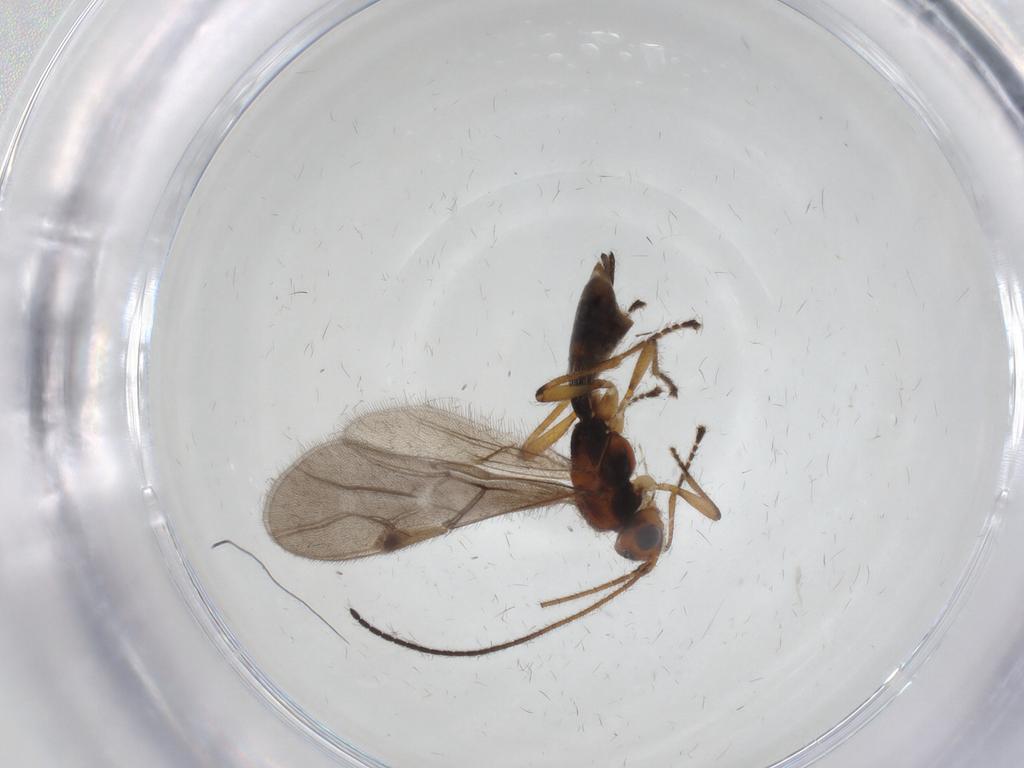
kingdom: Animalia
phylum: Arthropoda
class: Insecta
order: Hymenoptera
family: Braconidae
